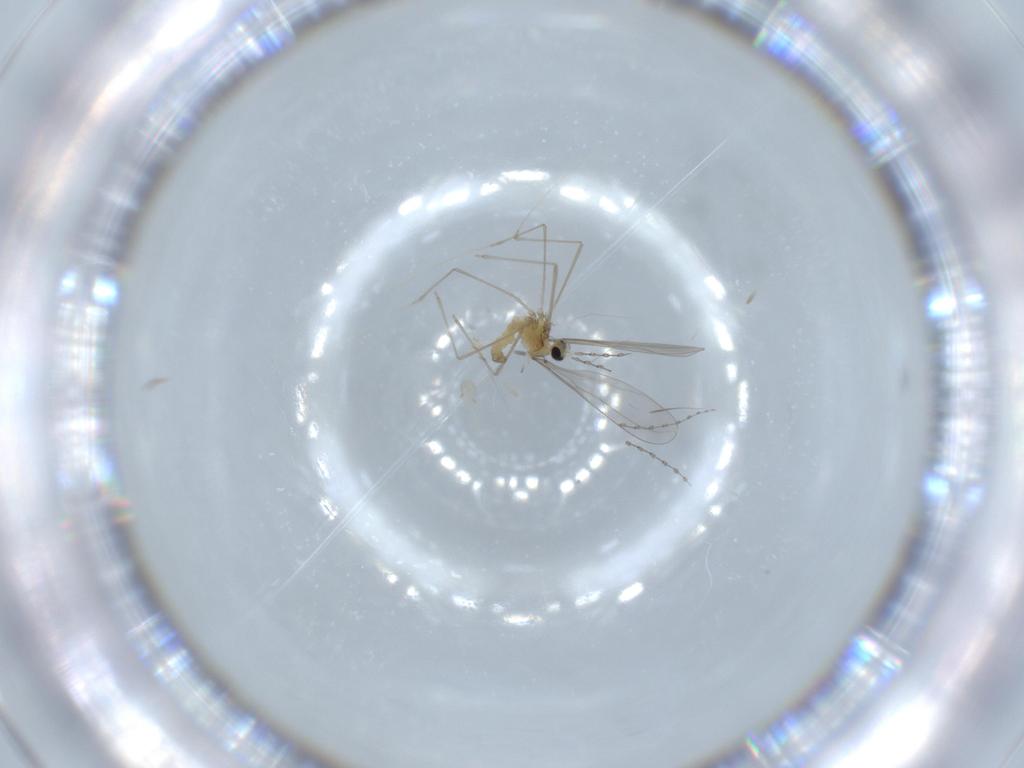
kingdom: Animalia
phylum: Arthropoda
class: Insecta
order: Diptera
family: Cecidomyiidae
